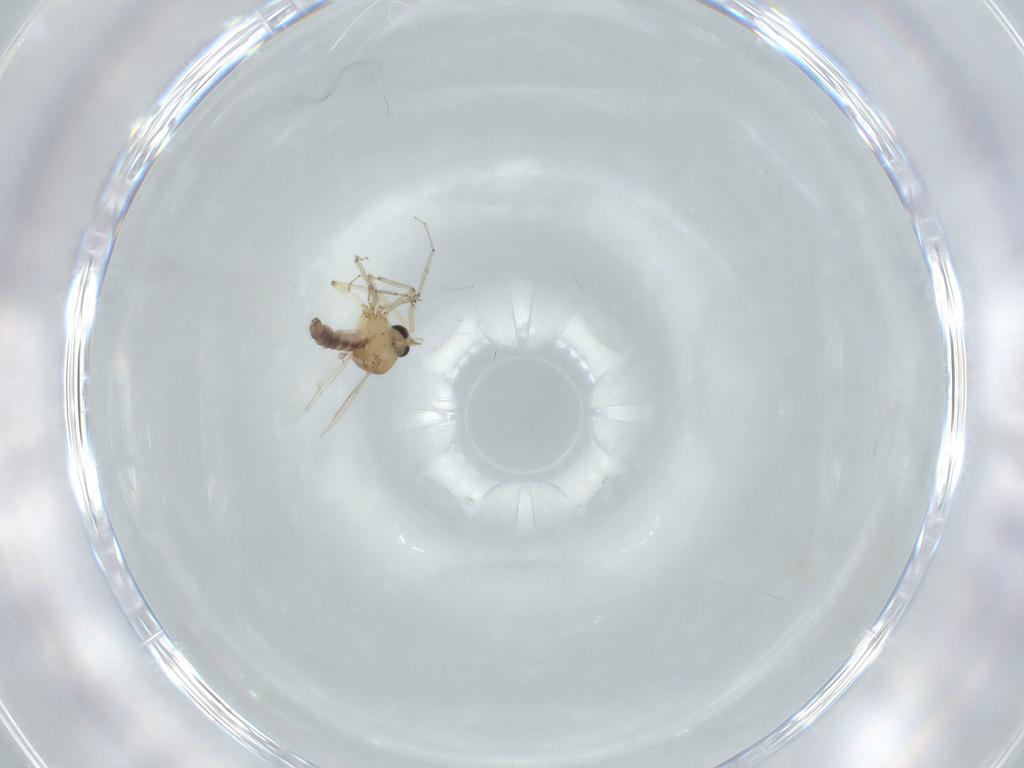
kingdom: Animalia
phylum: Arthropoda
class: Insecta
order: Diptera
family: Ceratopogonidae
